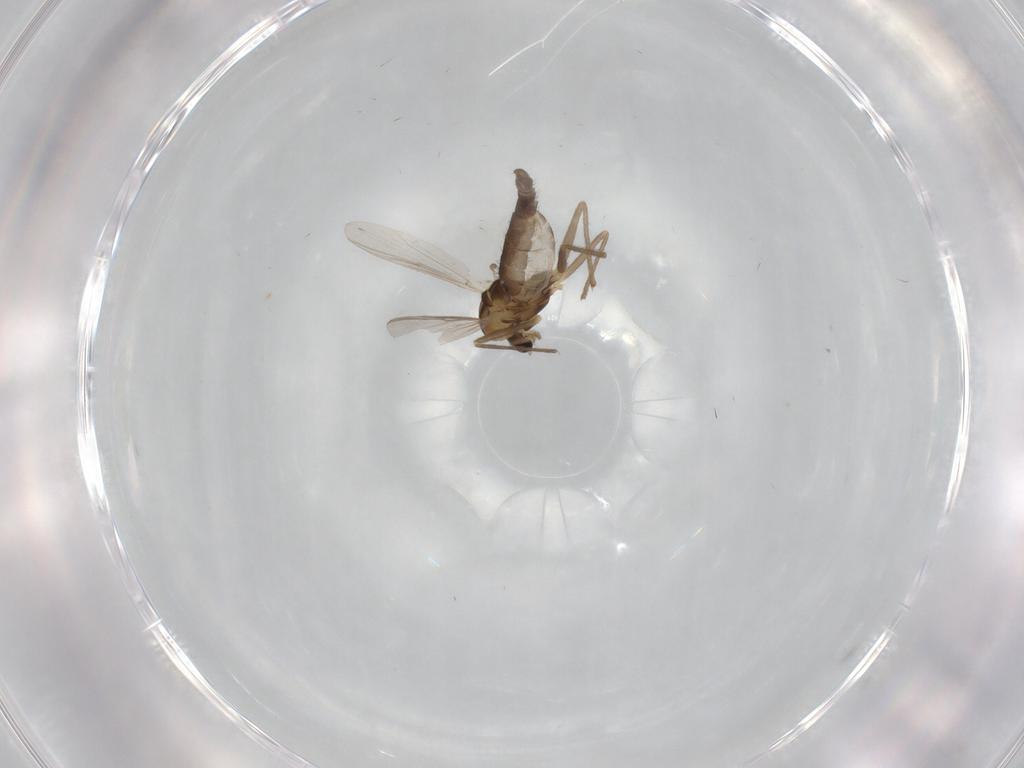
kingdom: Animalia
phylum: Arthropoda
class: Insecta
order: Diptera
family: Chironomidae
